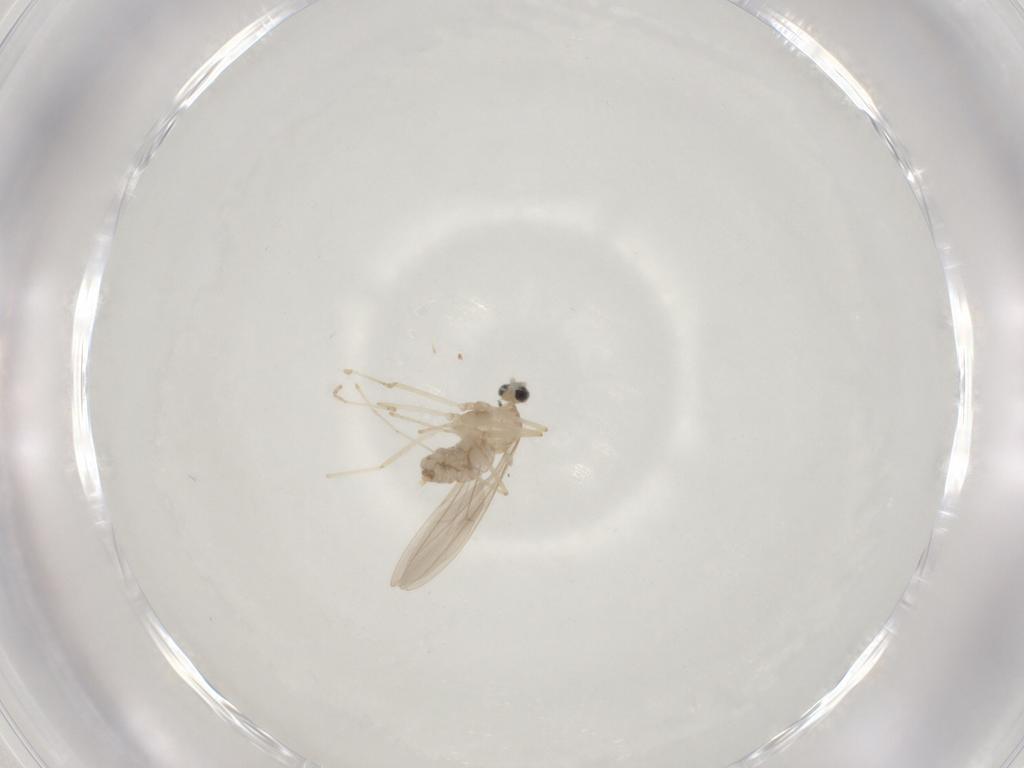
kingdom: Animalia
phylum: Arthropoda
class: Insecta
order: Diptera
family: Cecidomyiidae
